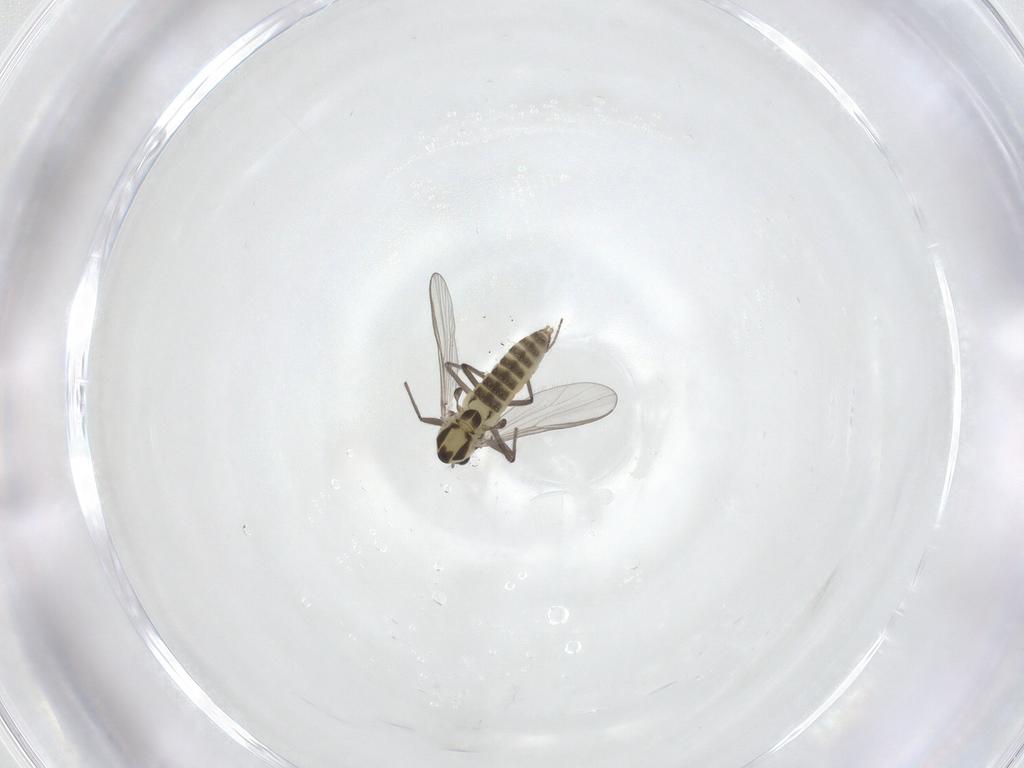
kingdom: Animalia
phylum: Arthropoda
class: Insecta
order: Diptera
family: Chironomidae
